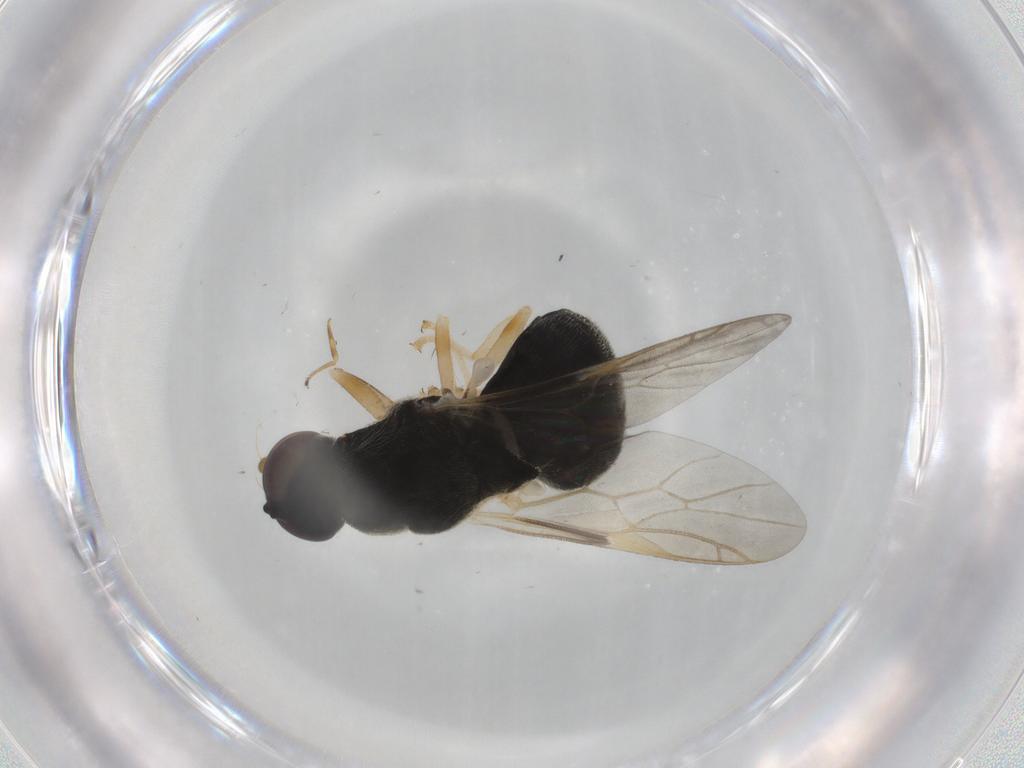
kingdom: Animalia
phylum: Arthropoda
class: Insecta
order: Diptera
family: Stratiomyidae
